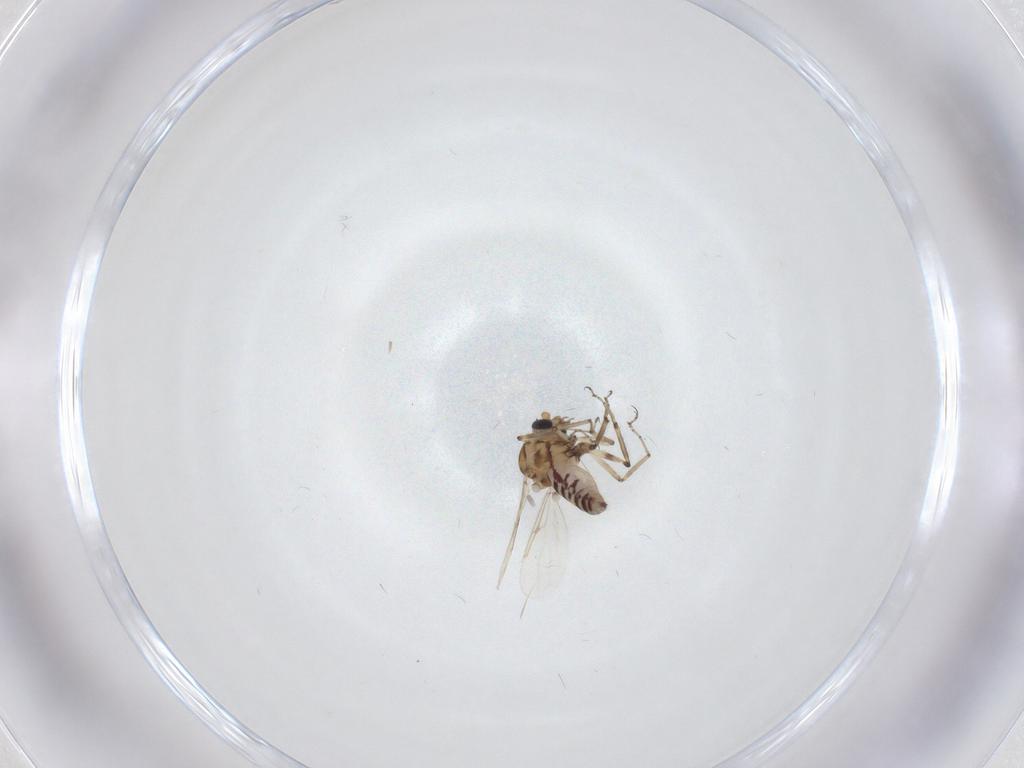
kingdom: Animalia
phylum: Arthropoda
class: Insecta
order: Diptera
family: Ceratopogonidae
